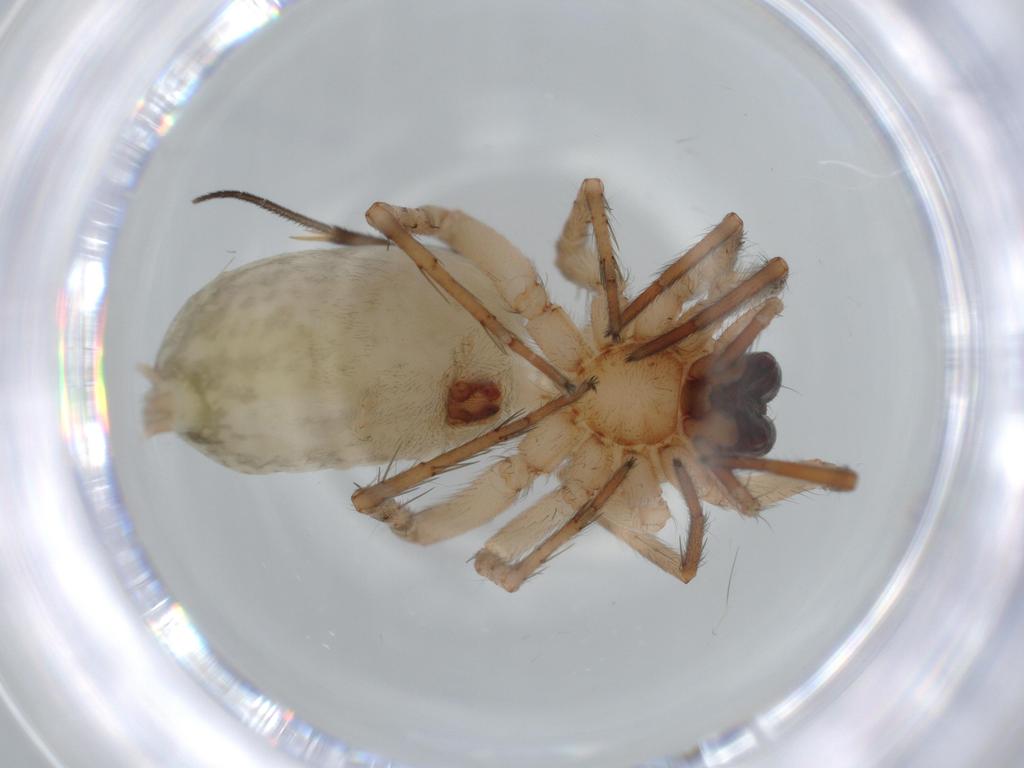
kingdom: Animalia
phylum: Arthropoda
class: Arachnida
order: Araneae
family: Amaurobiidae
